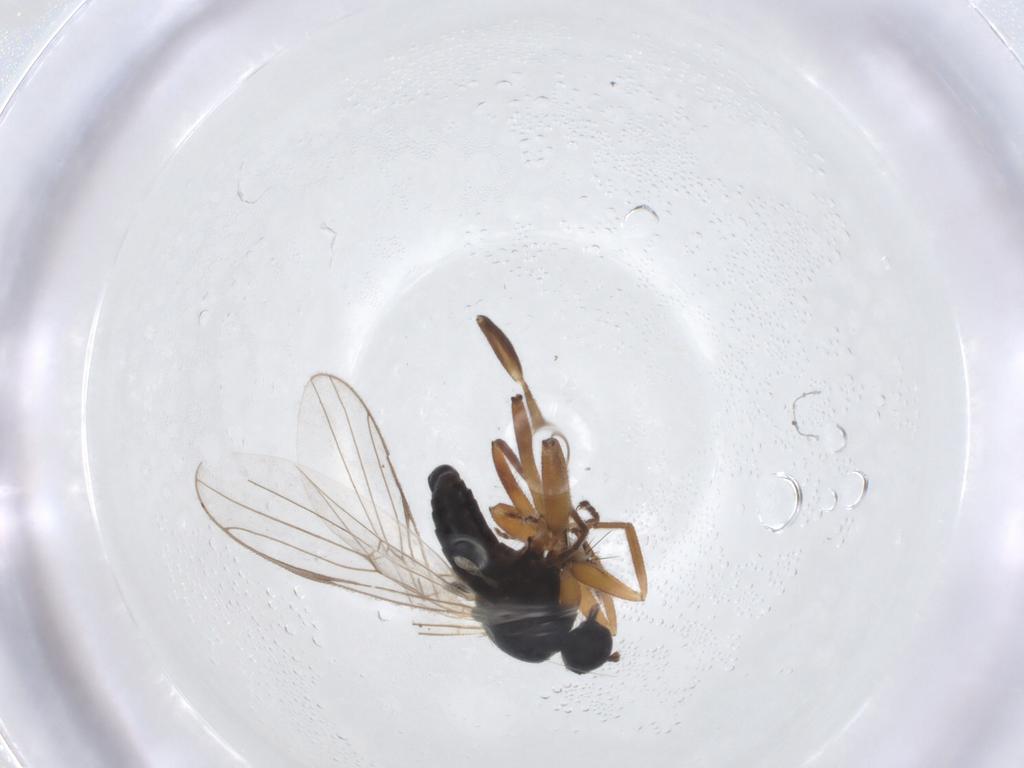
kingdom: Animalia
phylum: Arthropoda
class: Insecta
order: Diptera
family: Hybotidae
